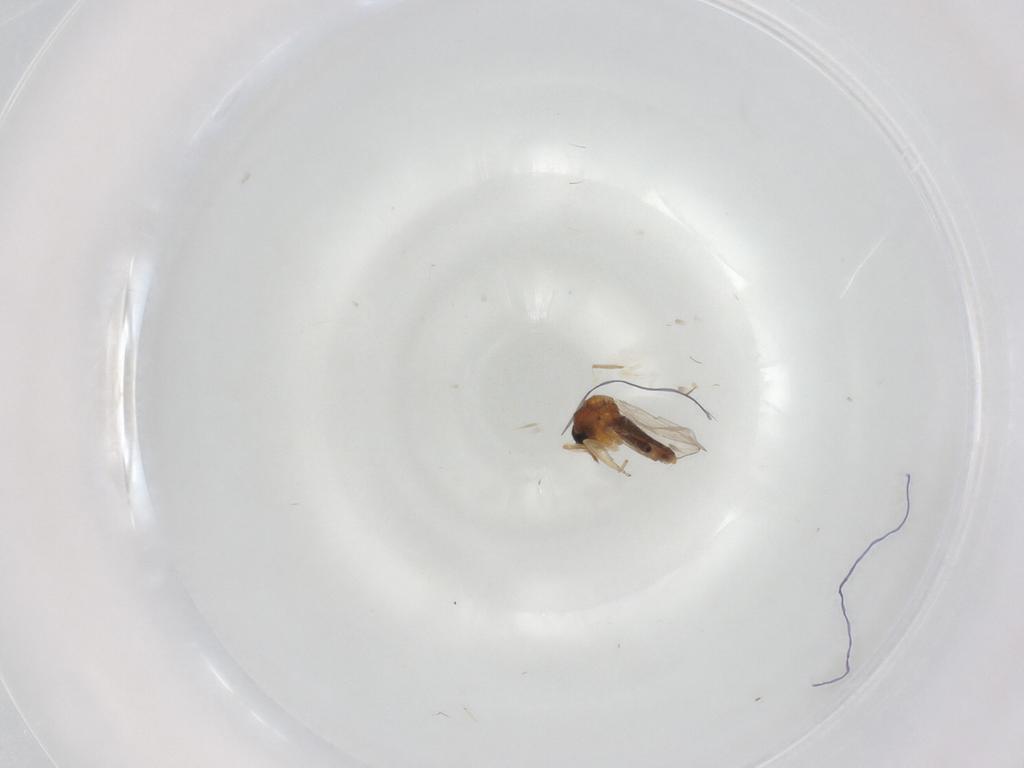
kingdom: Animalia
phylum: Arthropoda
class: Insecta
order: Diptera
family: Ceratopogonidae
